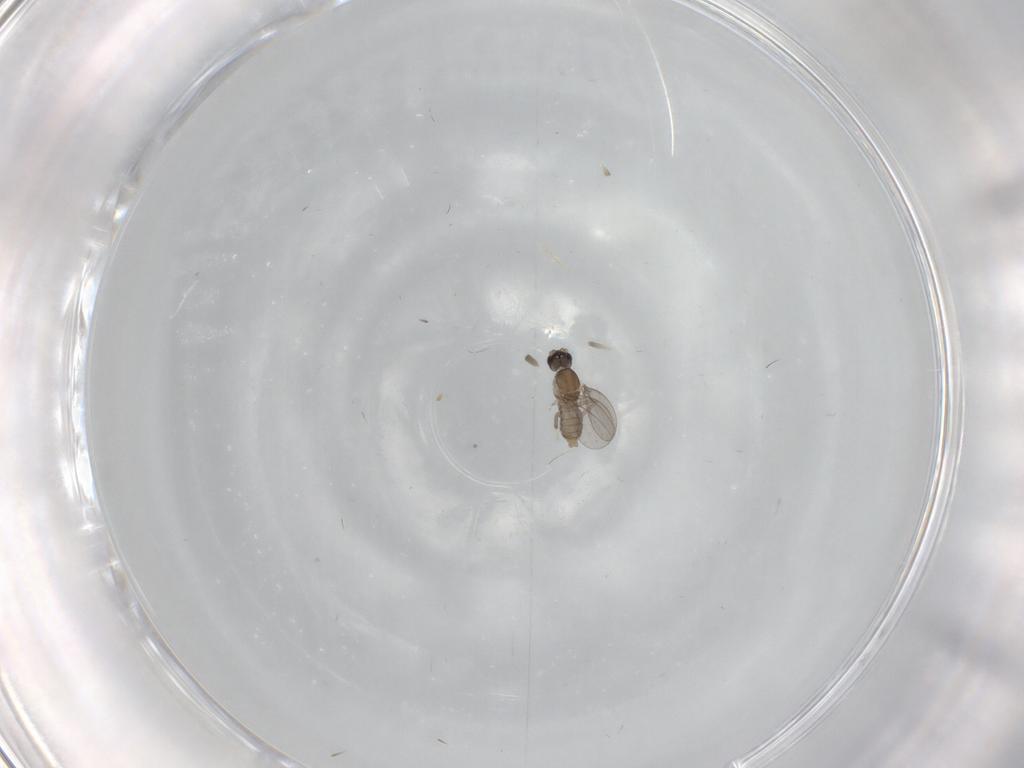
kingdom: Animalia
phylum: Arthropoda
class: Insecta
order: Diptera
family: Cecidomyiidae
